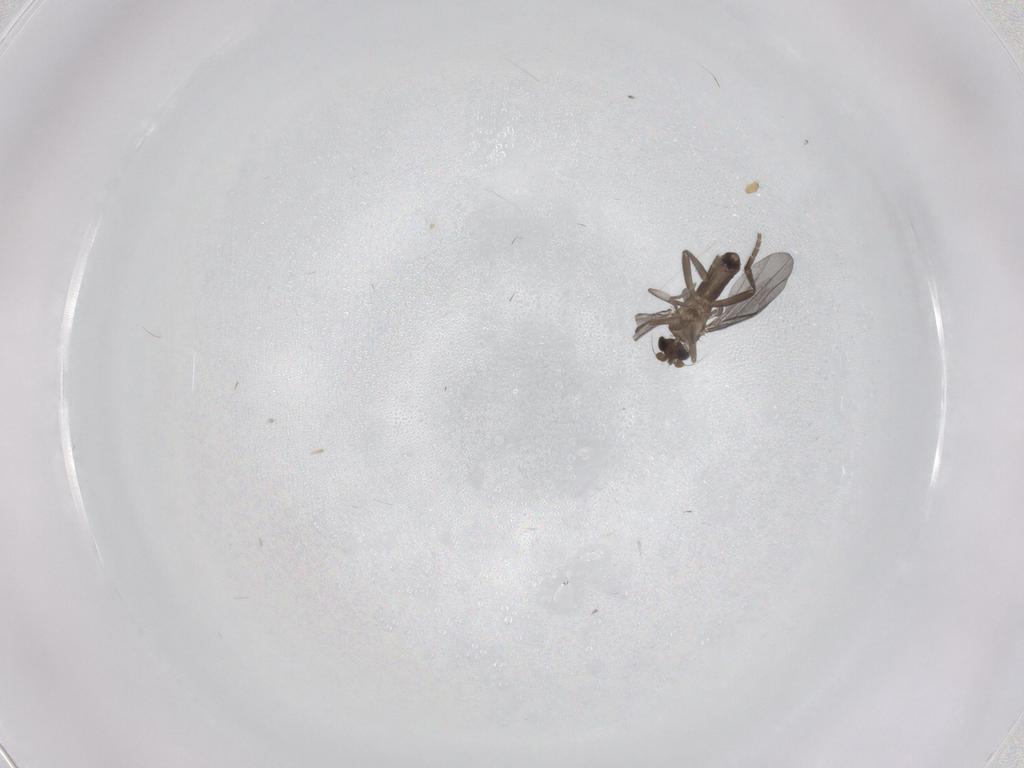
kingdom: Animalia
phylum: Arthropoda
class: Insecta
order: Diptera
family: Phoridae
